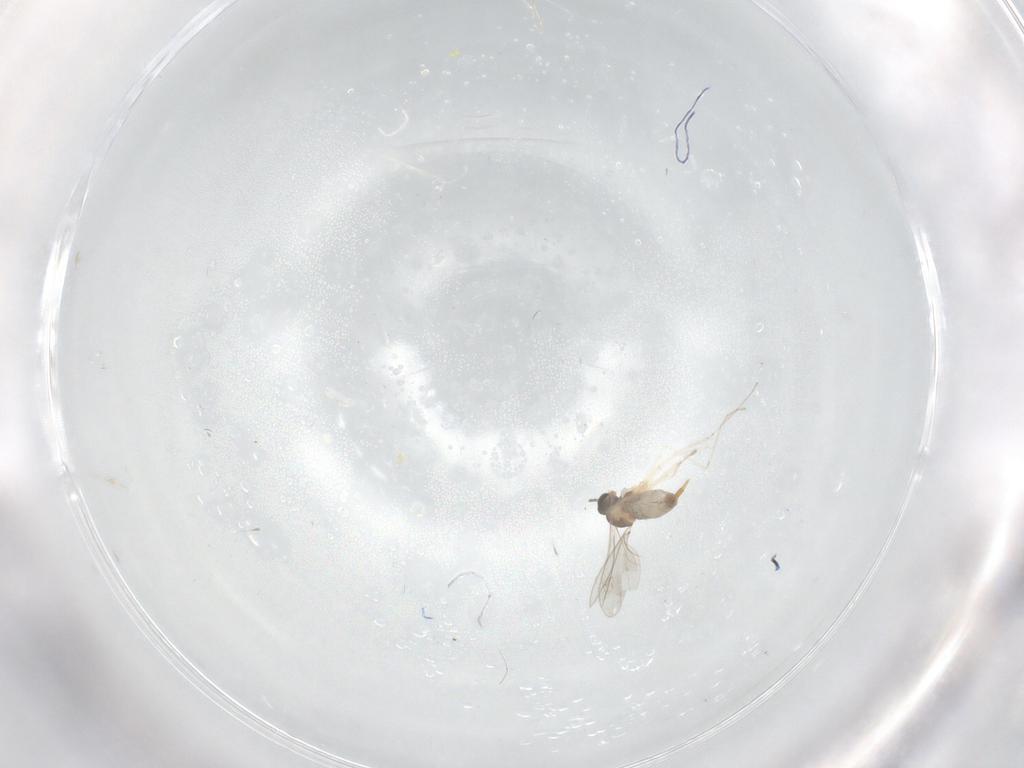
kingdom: Animalia
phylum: Arthropoda
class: Insecta
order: Diptera
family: Cecidomyiidae
